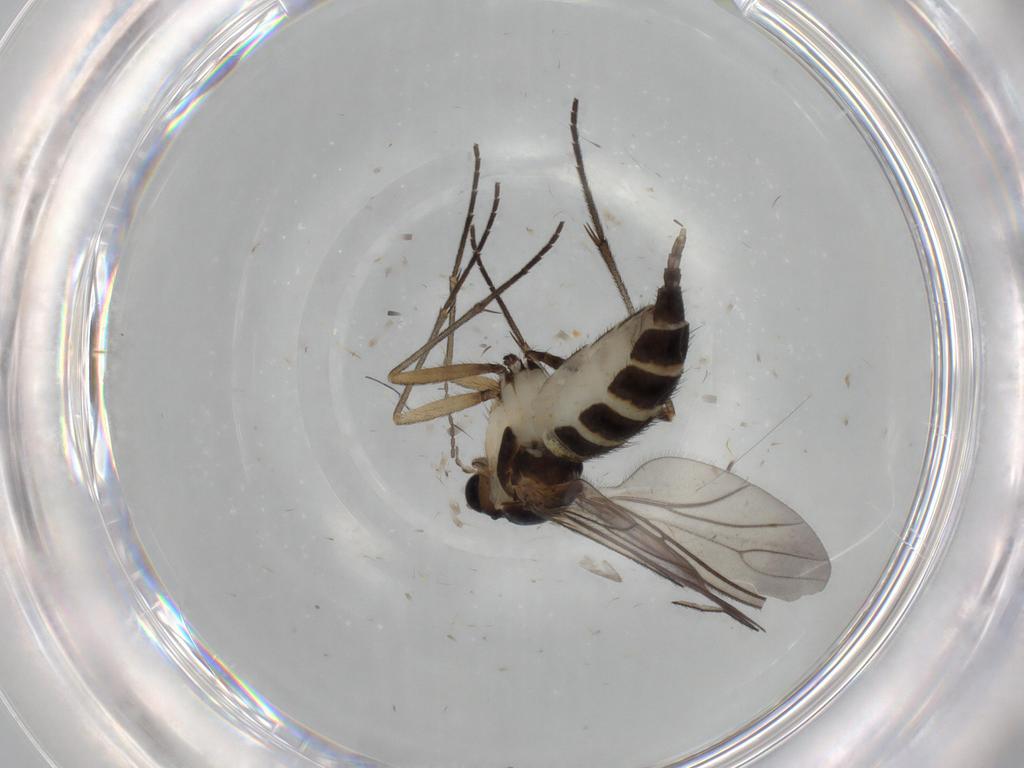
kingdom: Animalia
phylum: Arthropoda
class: Insecta
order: Diptera
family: Sciaridae
